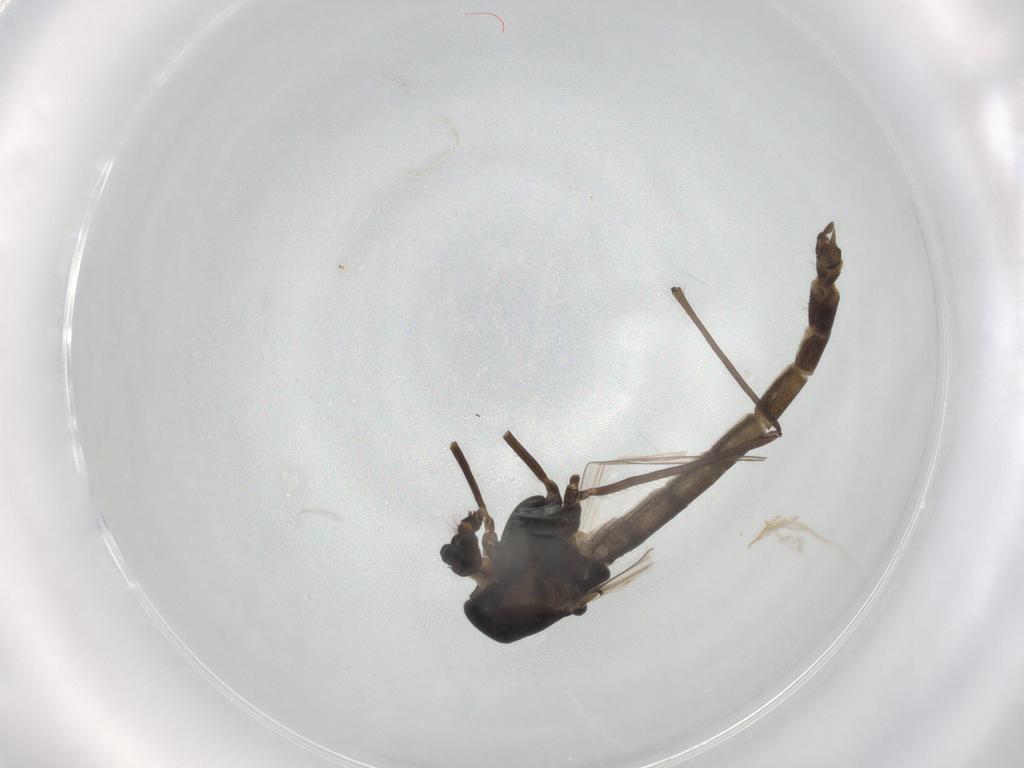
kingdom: Animalia
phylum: Arthropoda
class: Insecta
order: Diptera
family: Chironomidae
